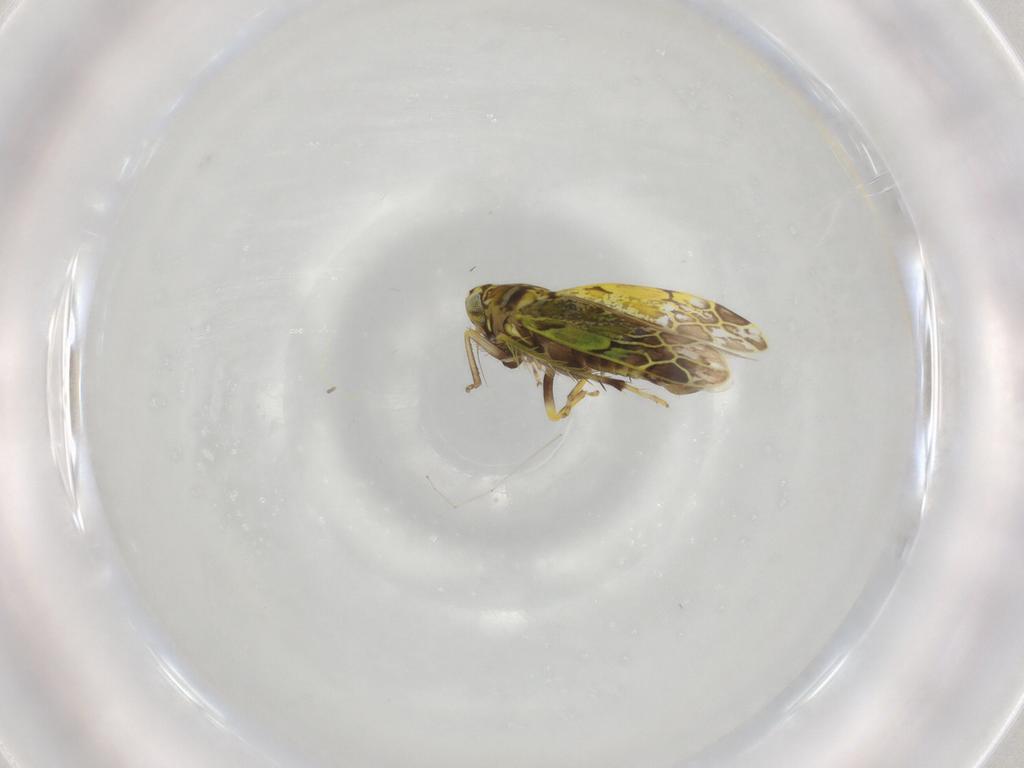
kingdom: Animalia
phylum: Arthropoda
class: Insecta
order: Hemiptera
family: Cicadellidae
